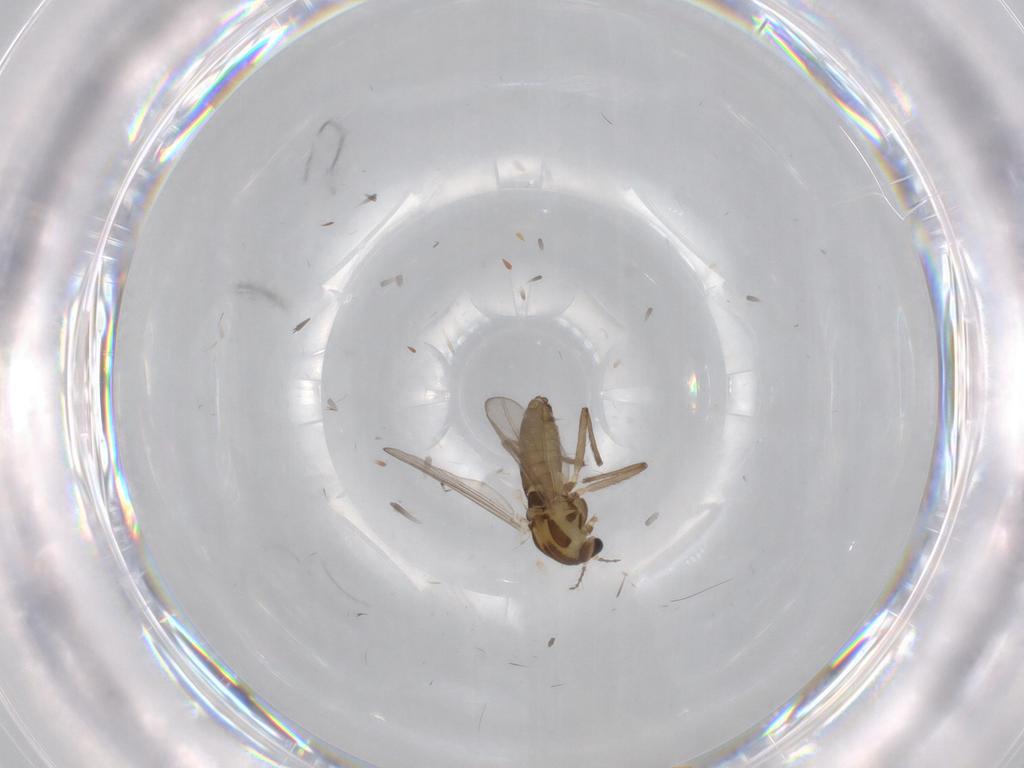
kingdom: Animalia
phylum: Arthropoda
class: Insecta
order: Diptera
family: Chironomidae
